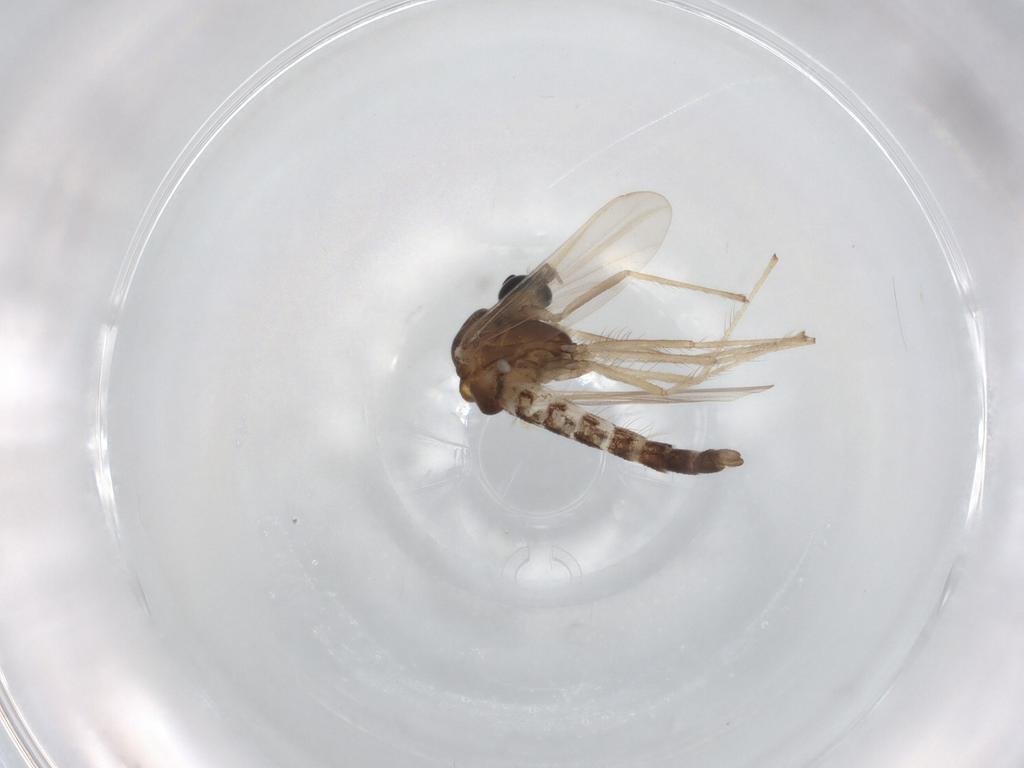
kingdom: Animalia
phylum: Arthropoda
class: Insecta
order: Diptera
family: Chironomidae
